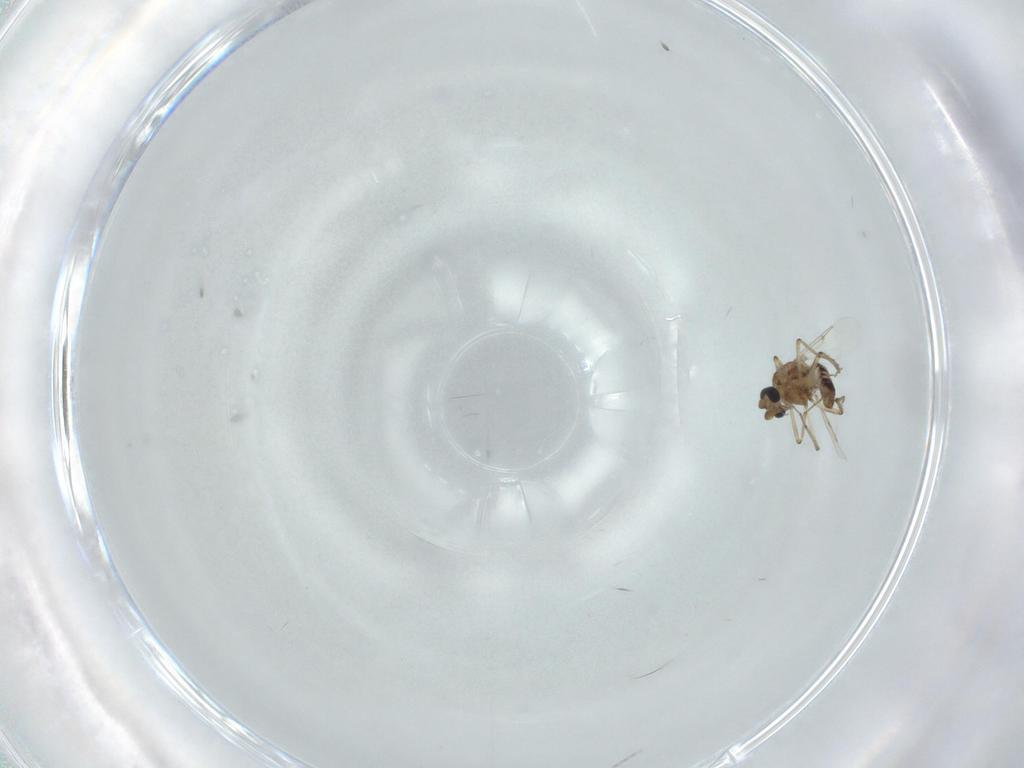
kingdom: Animalia
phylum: Arthropoda
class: Insecta
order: Diptera
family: Ceratopogonidae
